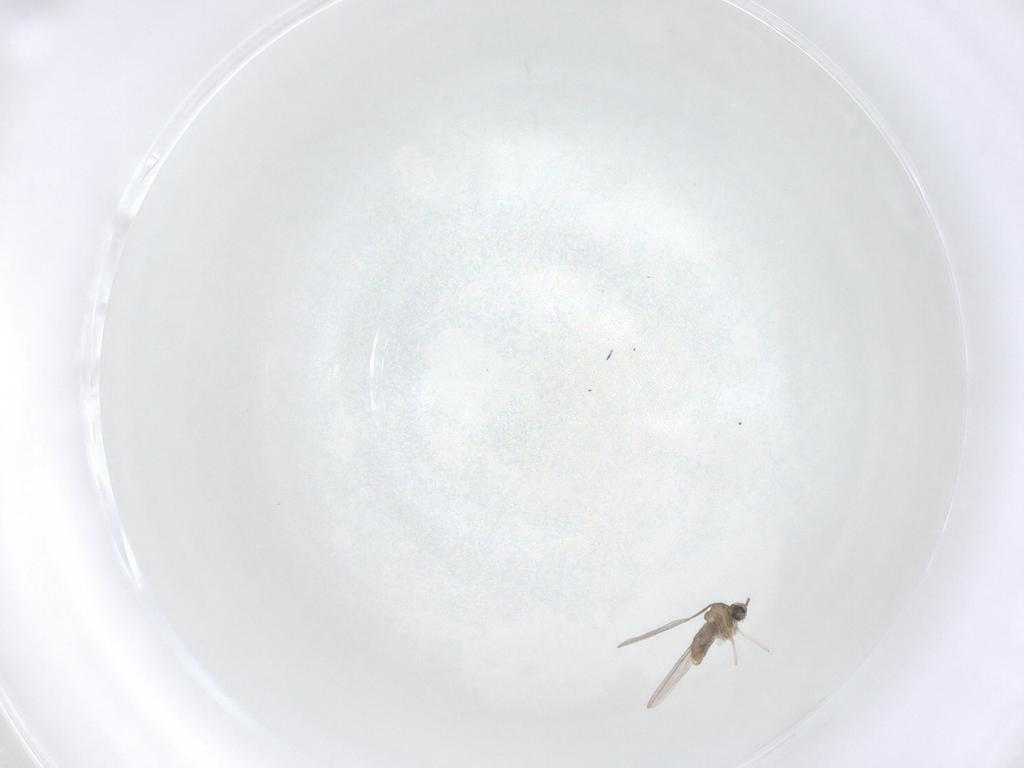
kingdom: Animalia
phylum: Arthropoda
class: Insecta
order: Diptera
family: Cecidomyiidae
